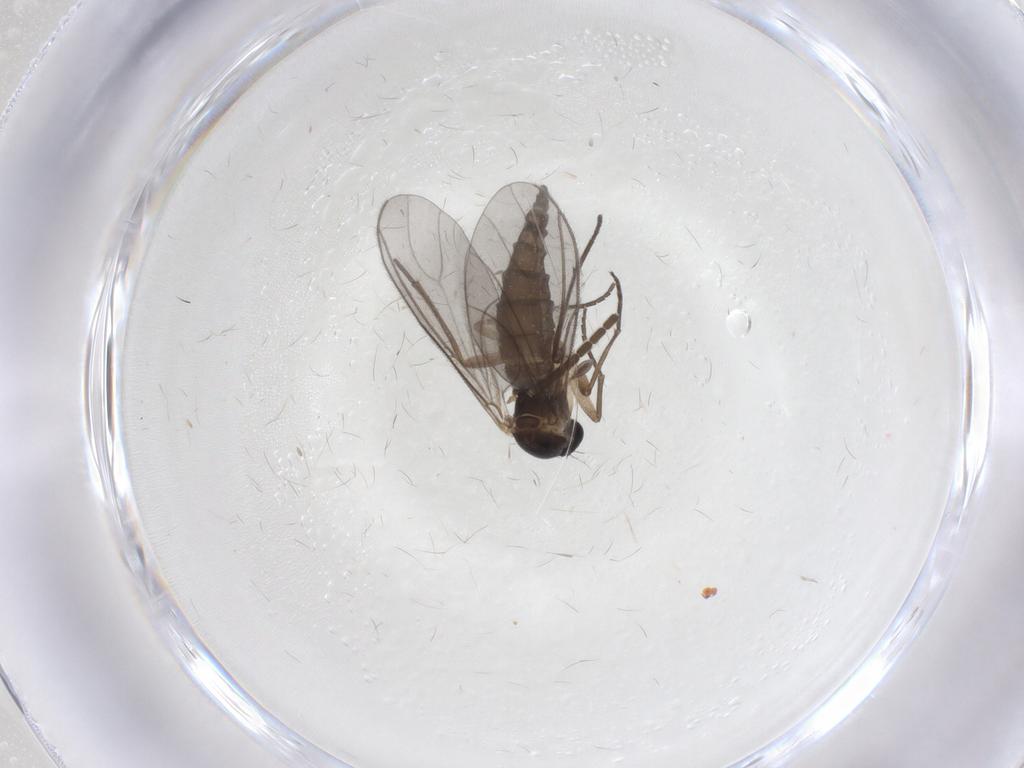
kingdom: Animalia
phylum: Arthropoda
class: Insecta
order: Diptera
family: Sciaridae
